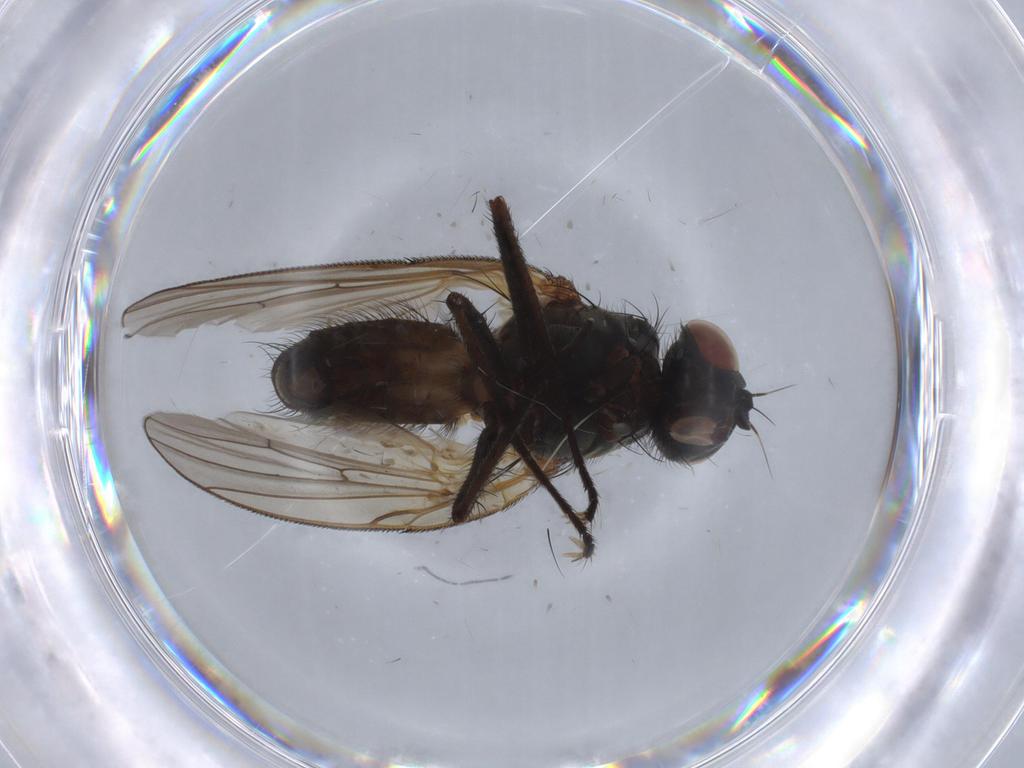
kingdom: Animalia
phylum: Arthropoda
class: Insecta
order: Diptera
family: Anthomyiidae
